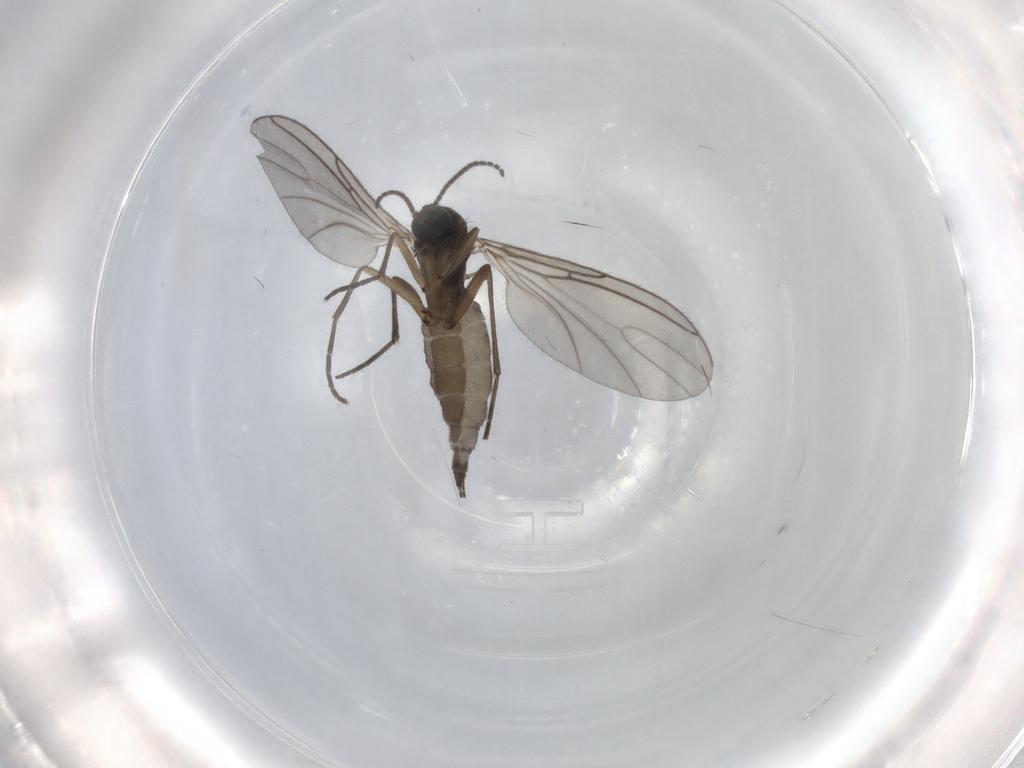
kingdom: Animalia
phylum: Arthropoda
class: Insecta
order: Diptera
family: Sciaridae
